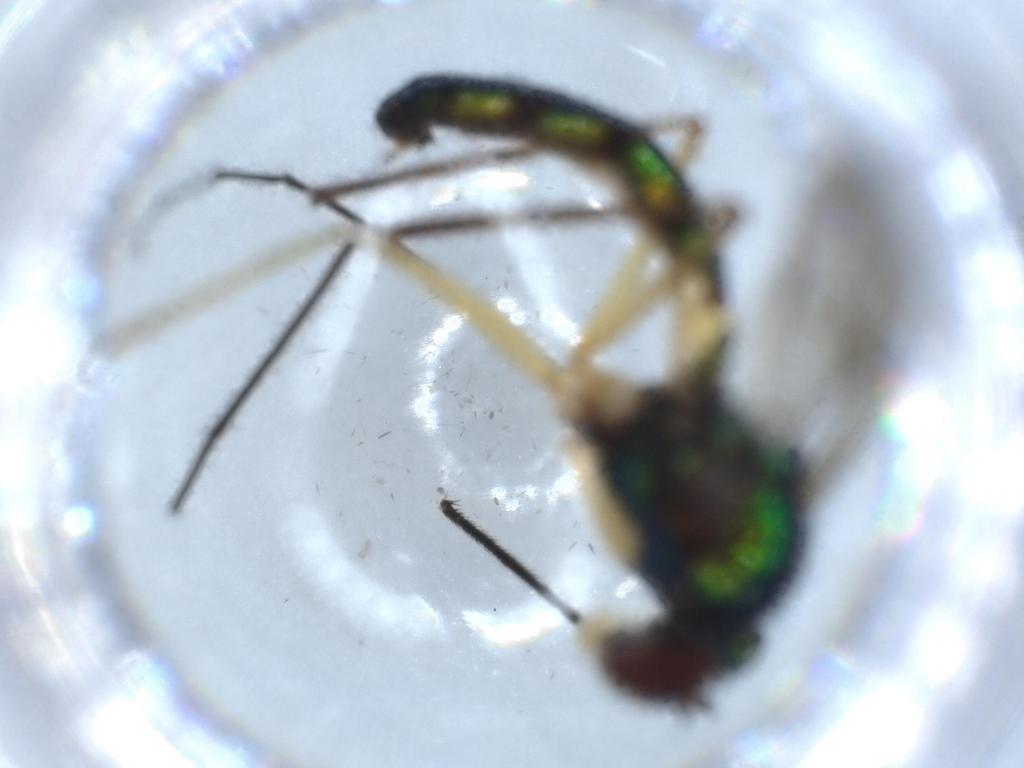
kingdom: Animalia
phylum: Arthropoda
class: Insecta
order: Diptera
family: Dolichopodidae
